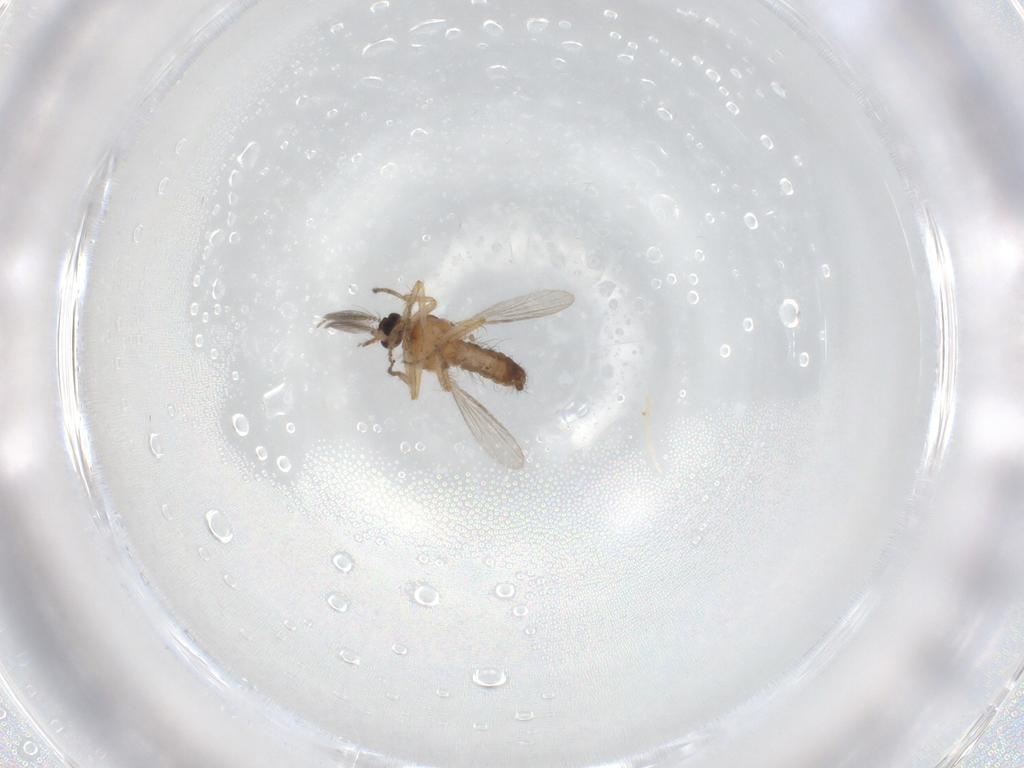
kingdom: Animalia
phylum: Arthropoda
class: Insecta
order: Diptera
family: Ceratopogonidae
